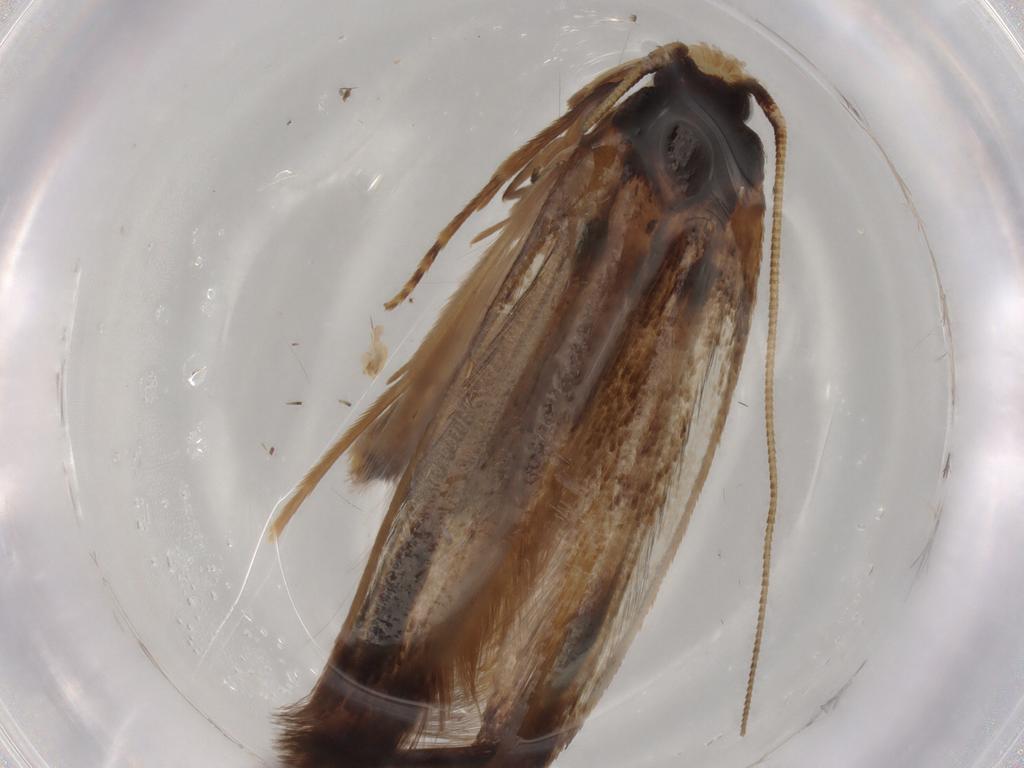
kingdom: Animalia
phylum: Arthropoda
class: Insecta
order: Lepidoptera
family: Tineidae
